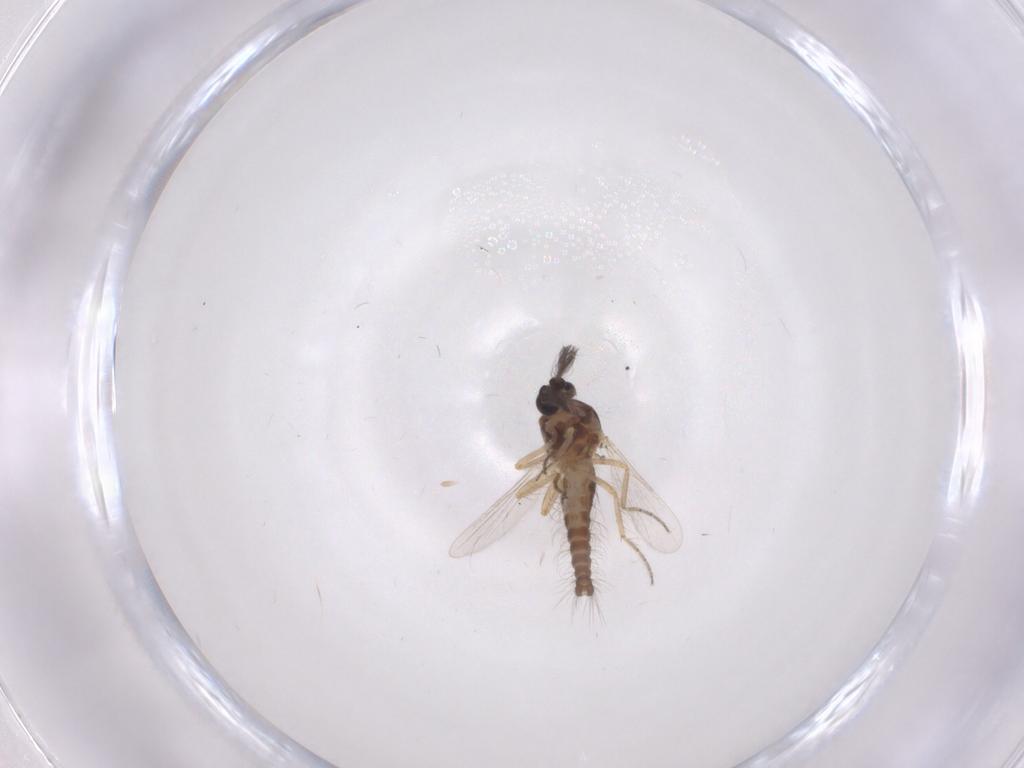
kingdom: Animalia
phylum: Arthropoda
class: Insecta
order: Diptera
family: Ceratopogonidae
